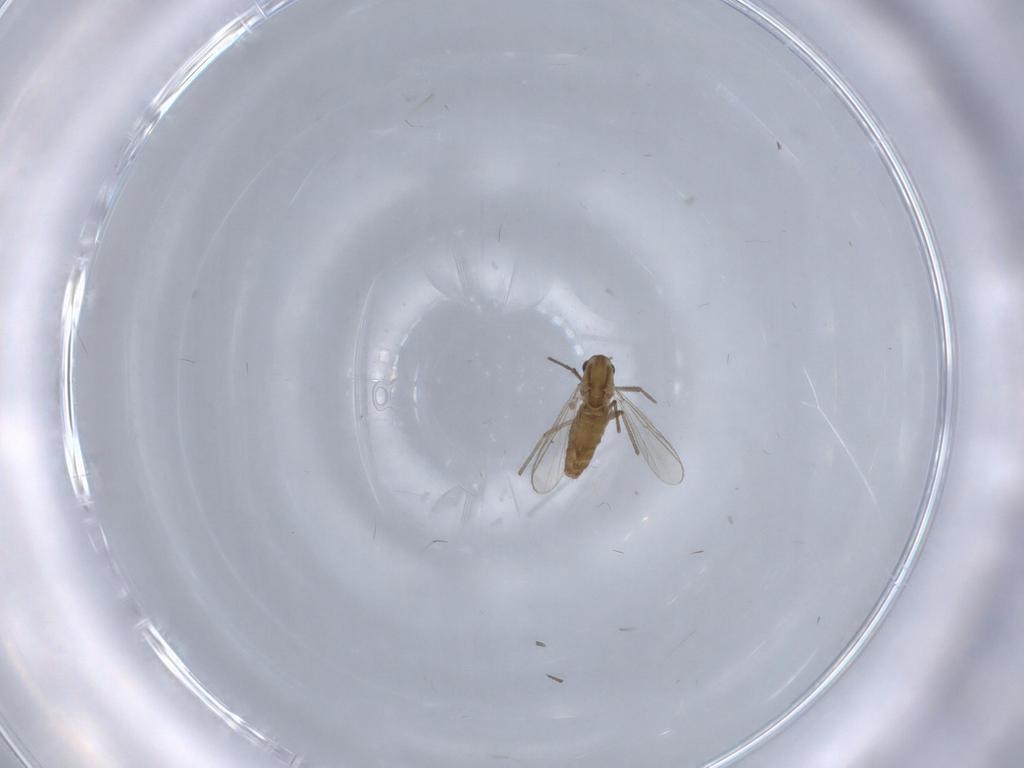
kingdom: Animalia
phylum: Arthropoda
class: Insecta
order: Diptera
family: Chironomidae
